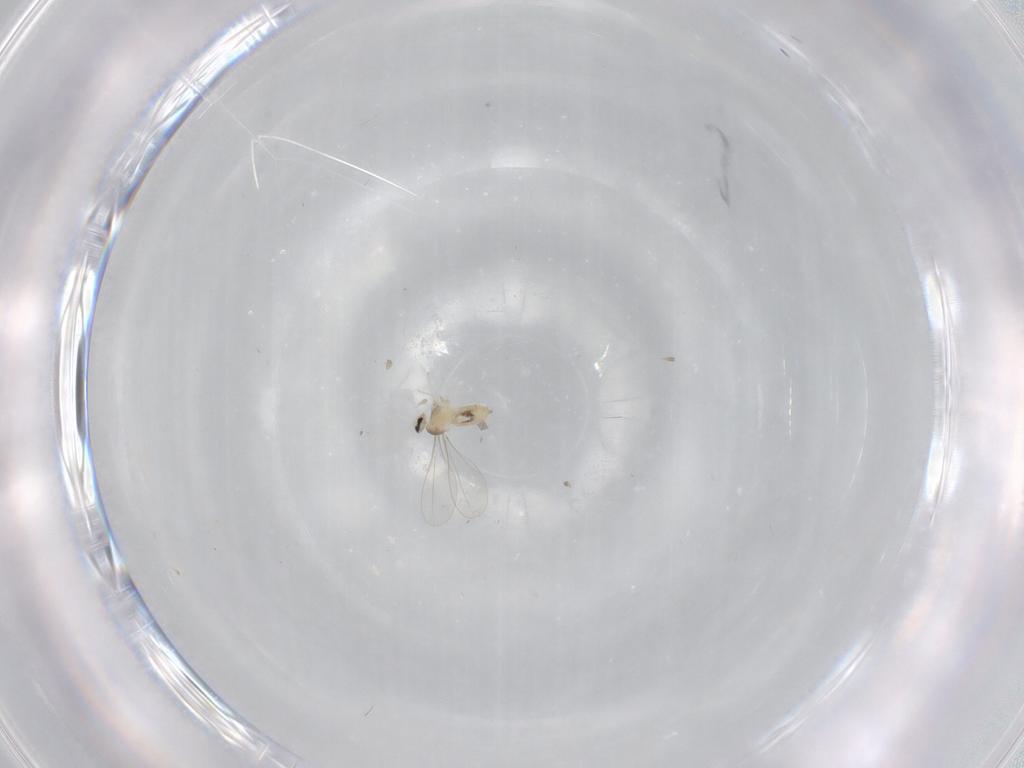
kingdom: Animalia
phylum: Arthropoda
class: Insecta
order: Diptera
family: Cecidomyiidae
